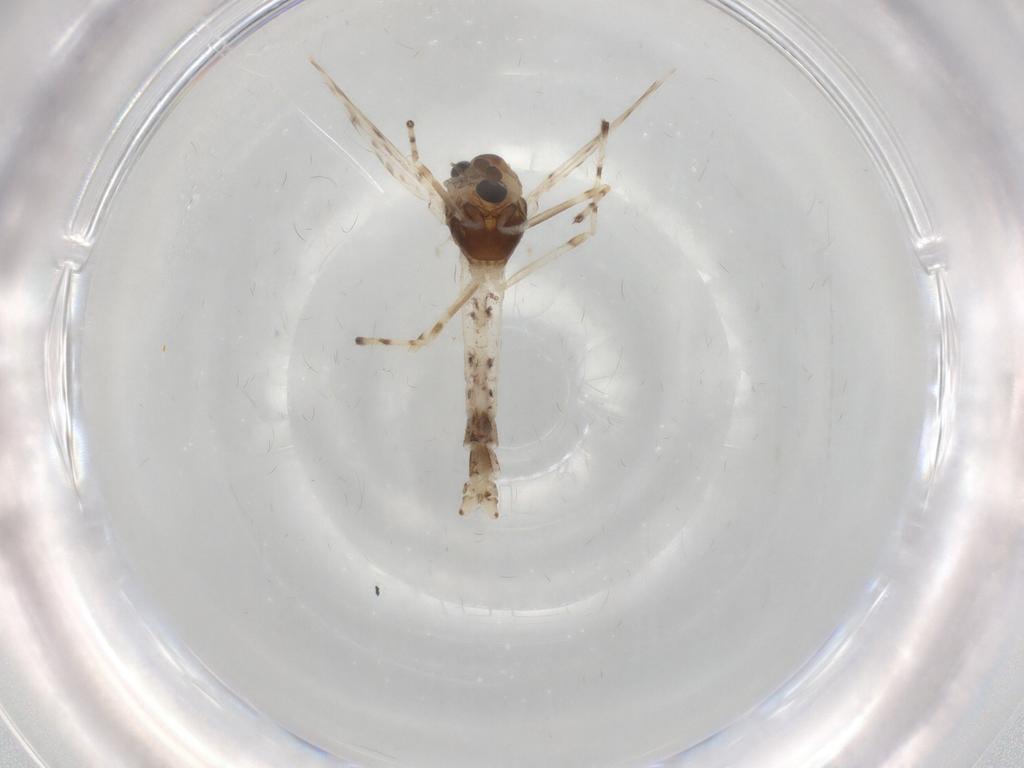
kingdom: Animalia
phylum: Arthropoda
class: Insecta
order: Diptera
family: Chironomidae
